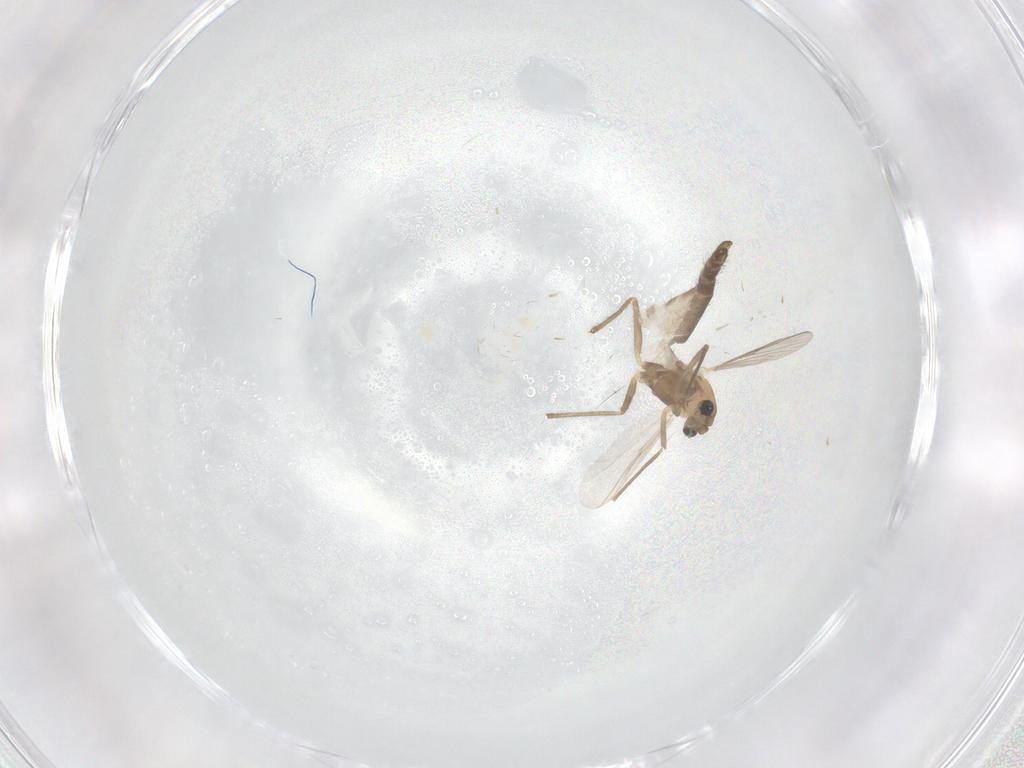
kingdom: Animalia
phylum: Arthropoda
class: Insecta
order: Diptera
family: Chironomidae
